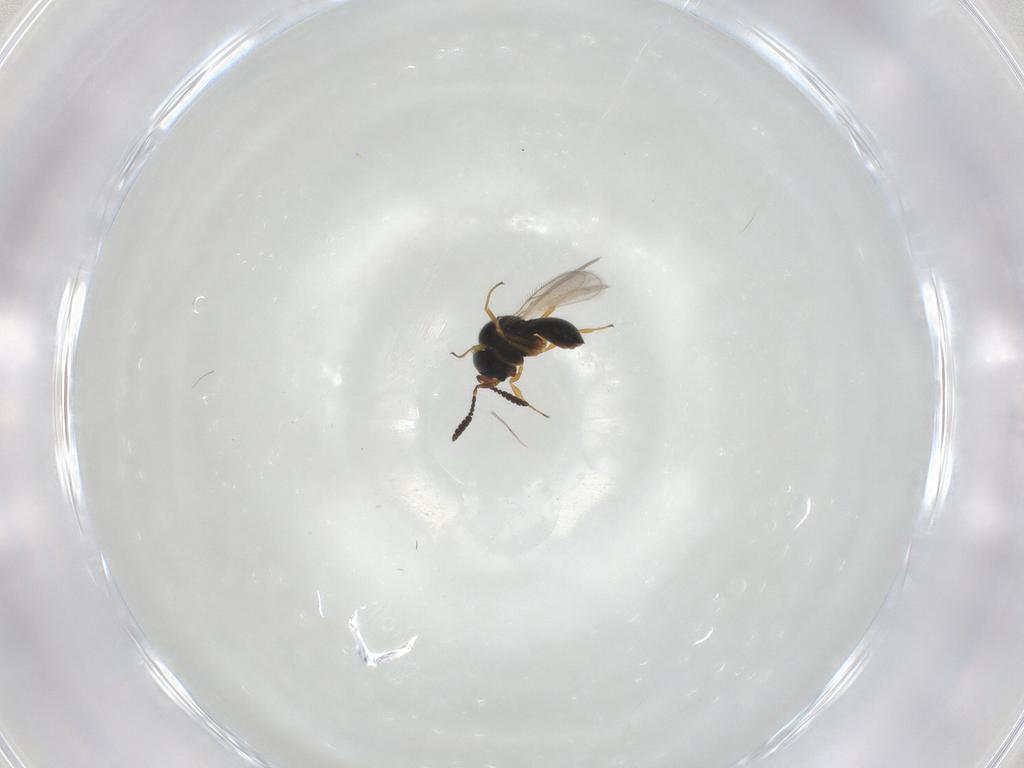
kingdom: Animalia
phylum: Arthropoda
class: Insecta
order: Hymenoptera
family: Scelionidae
